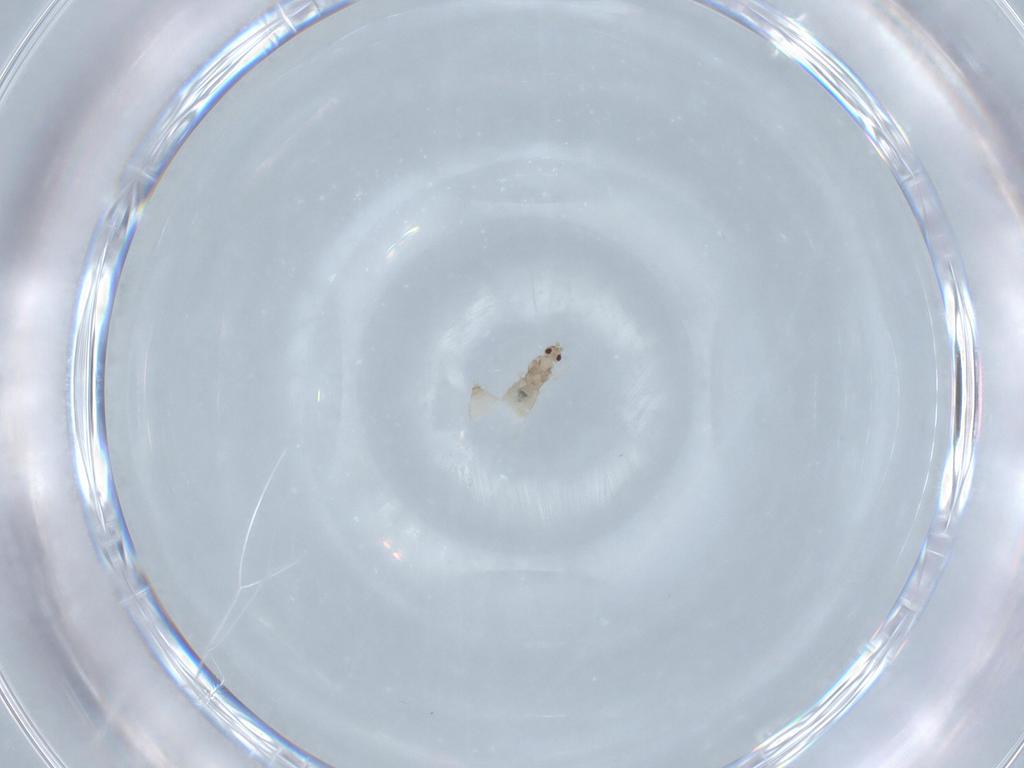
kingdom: Animalia
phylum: Arthropoda
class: Insecta
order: Diptera
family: Cecidomyiidae
